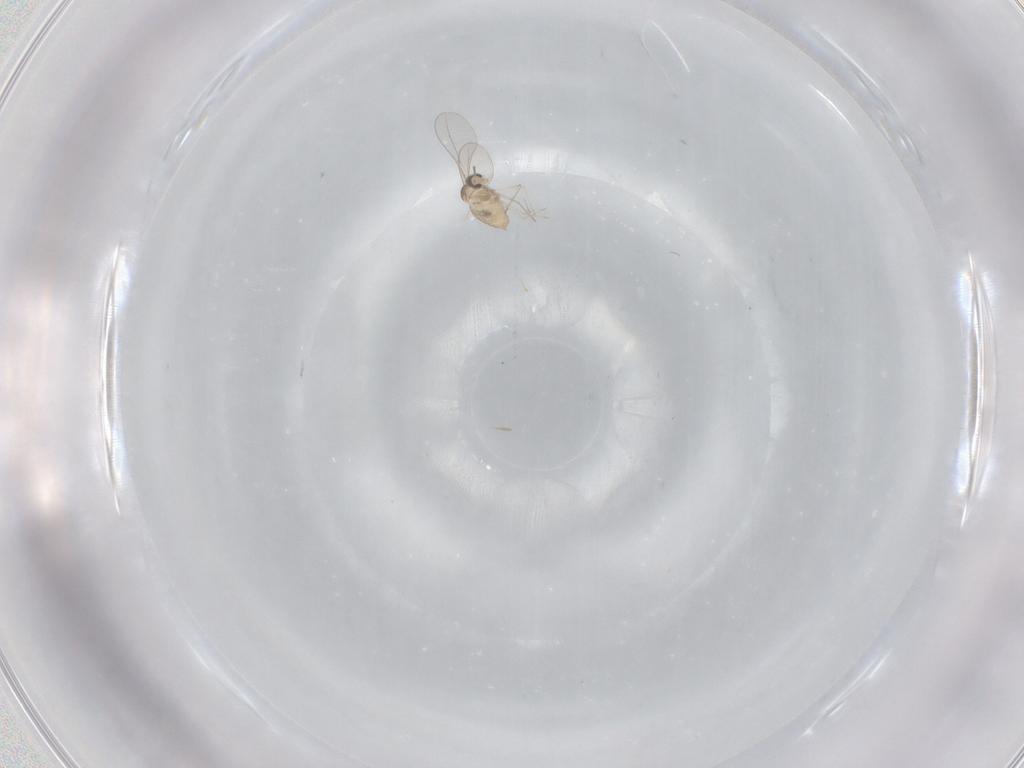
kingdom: Animalia
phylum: Arthropoda
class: Insecta
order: Diptera
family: Cecidomyiidae
